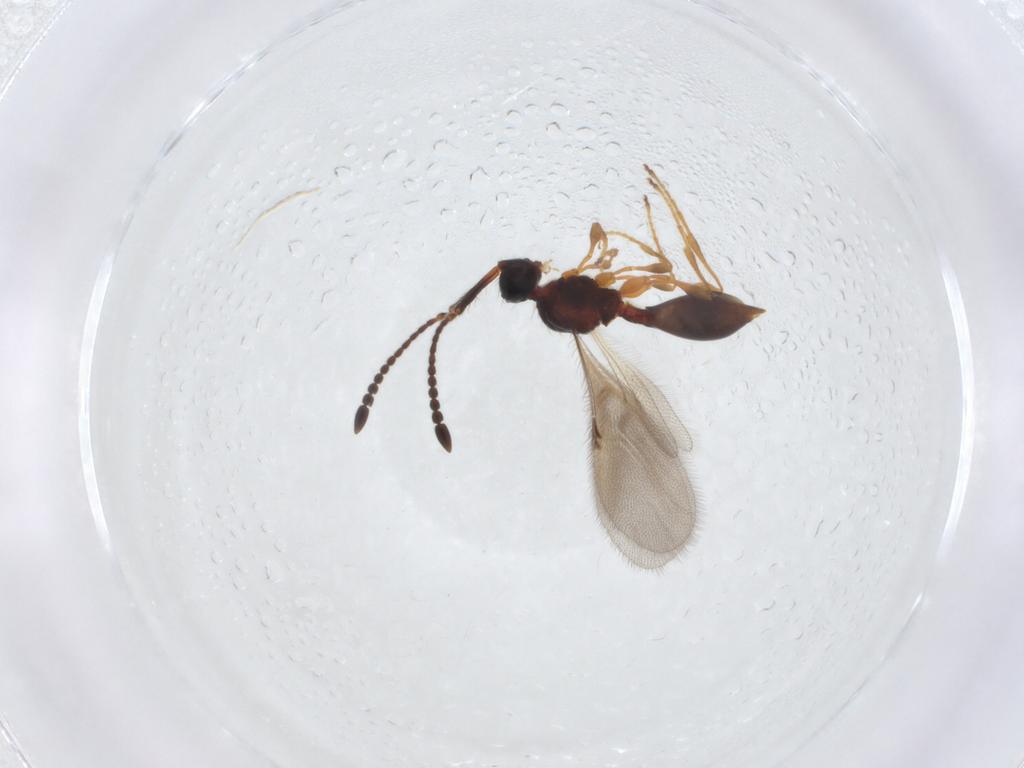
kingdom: Animalia
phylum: Arthropoda
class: Insecta
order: Hymenoptera
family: Diapriidae
